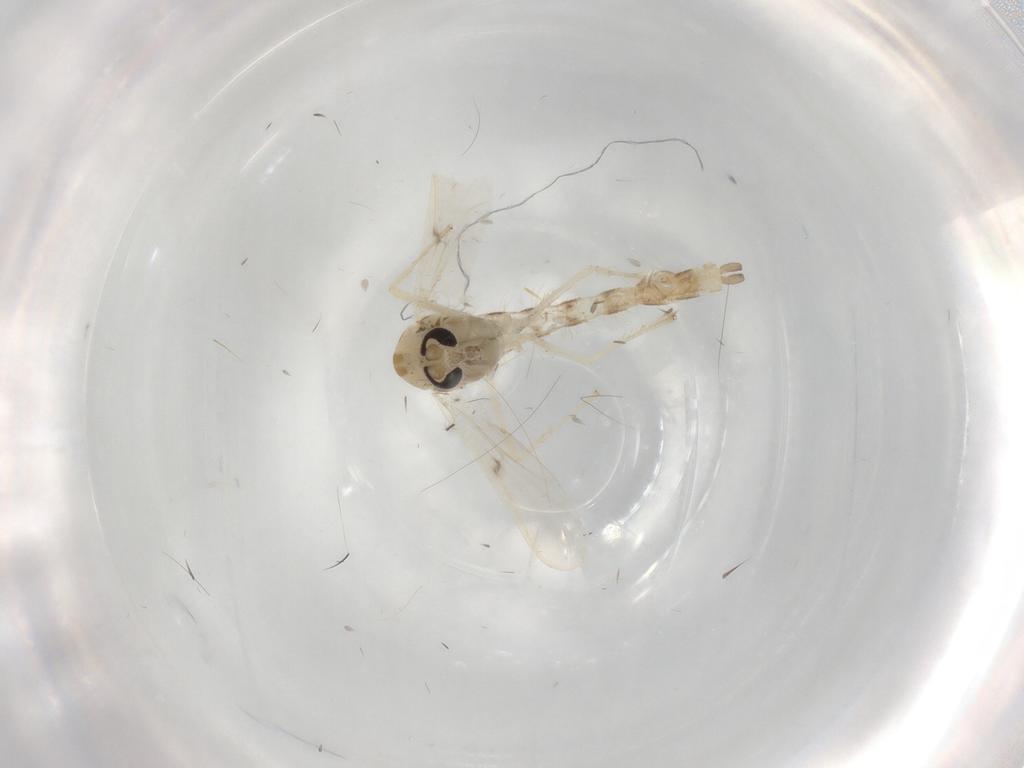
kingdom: Animalia
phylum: Arthropoda
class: Insecta
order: Diptera
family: Chironomidae
